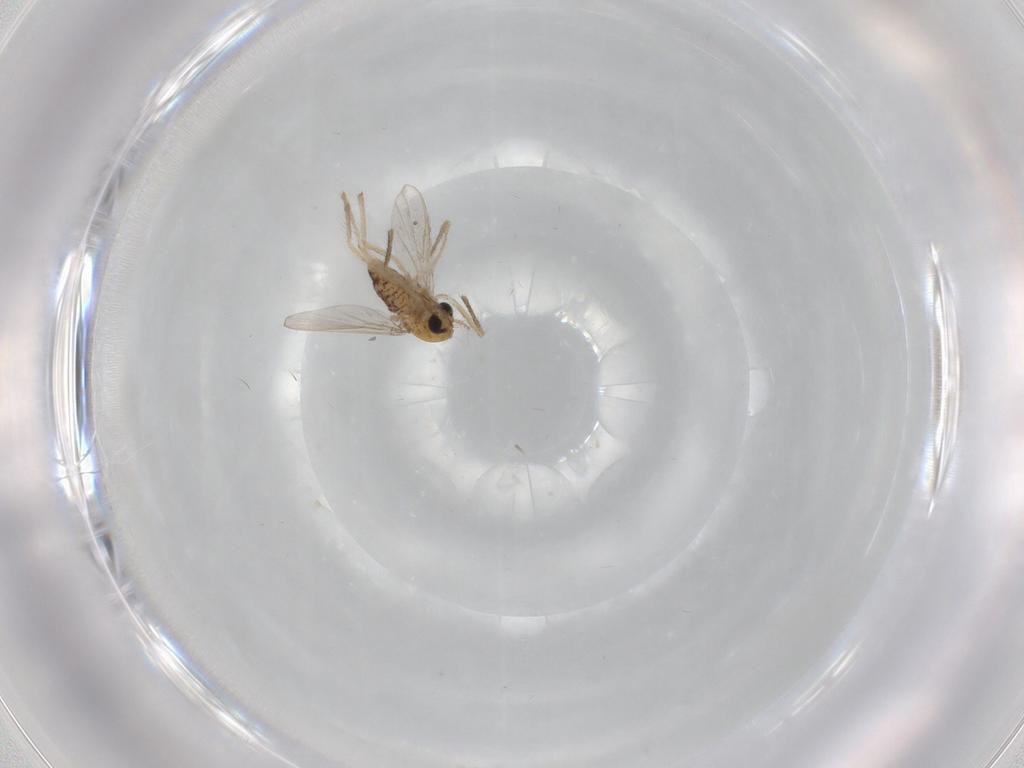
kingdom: Animalia
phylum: Arthropoda
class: Insecta
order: Diptera
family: Chironomidae
